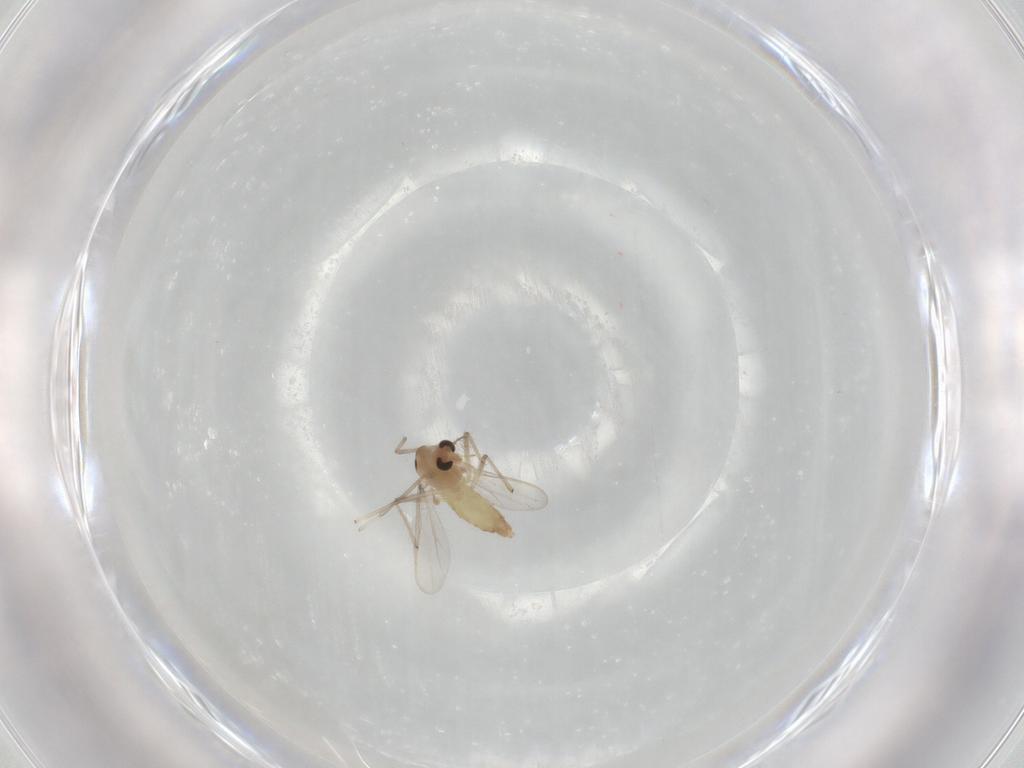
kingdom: Animalia
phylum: Arthropoda
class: Insecta
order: Diptera
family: Chironomidae
